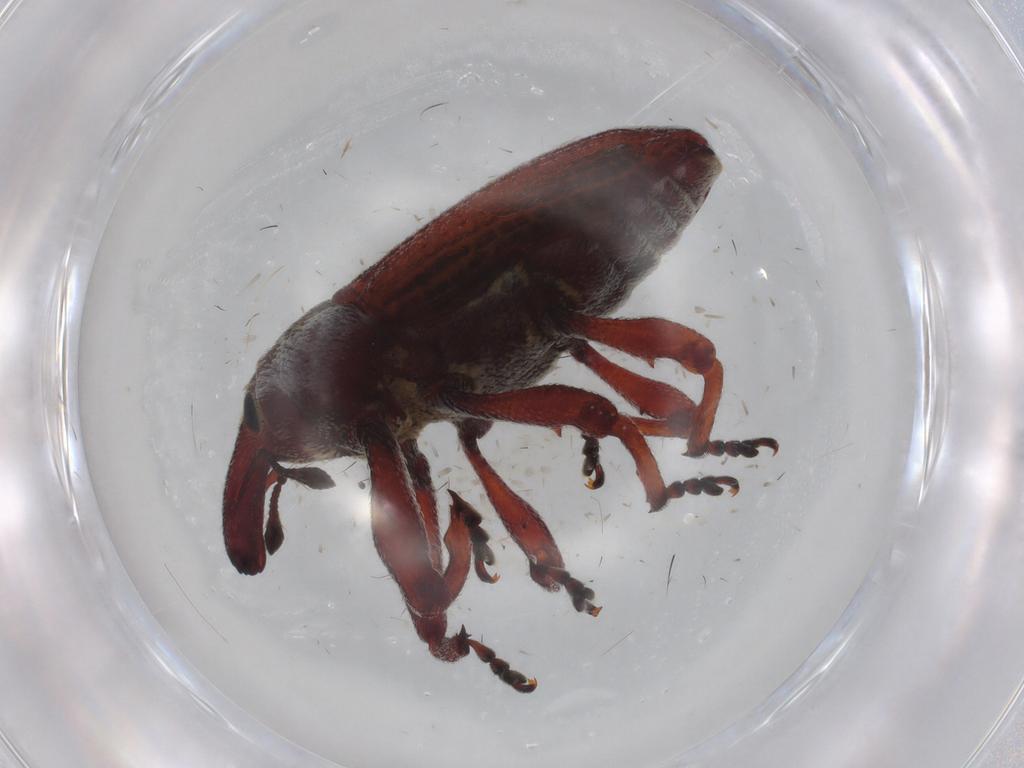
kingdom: Animalia
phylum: Arthropoda
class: Insecta
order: Coleoptera
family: Curculionidae
